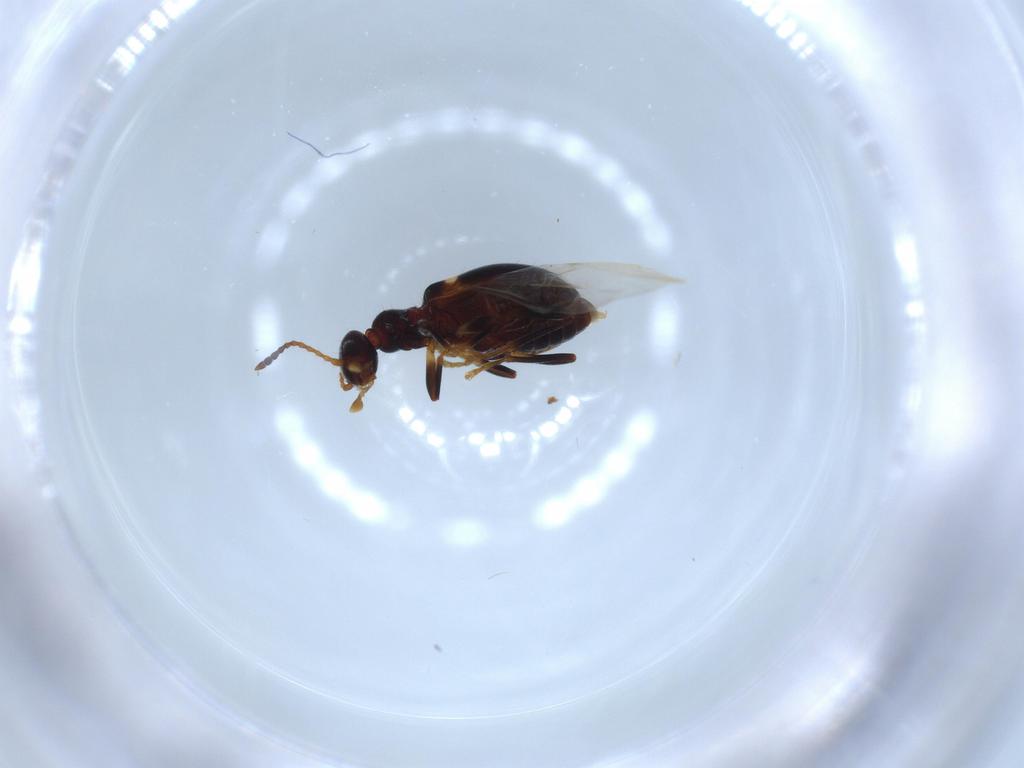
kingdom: Animalia
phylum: Arthropoda
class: Insecta
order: Coleoptera
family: Anthicidae
